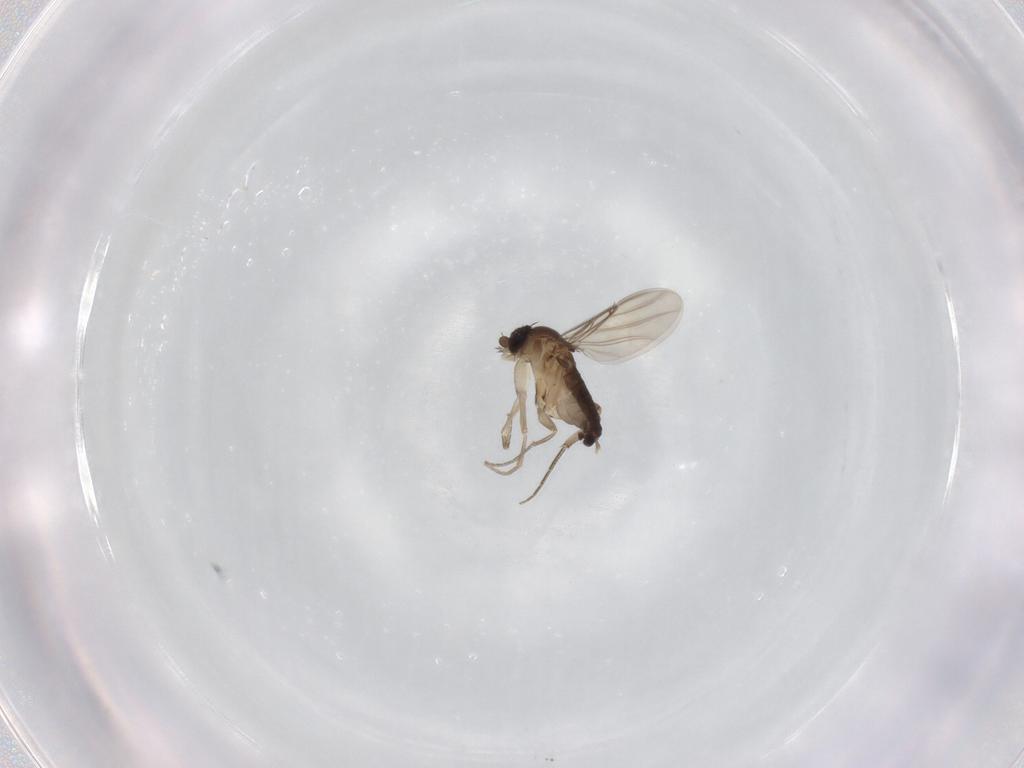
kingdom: Animalia
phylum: Arthropoda
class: Insecta
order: Diptera
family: Phoridae
